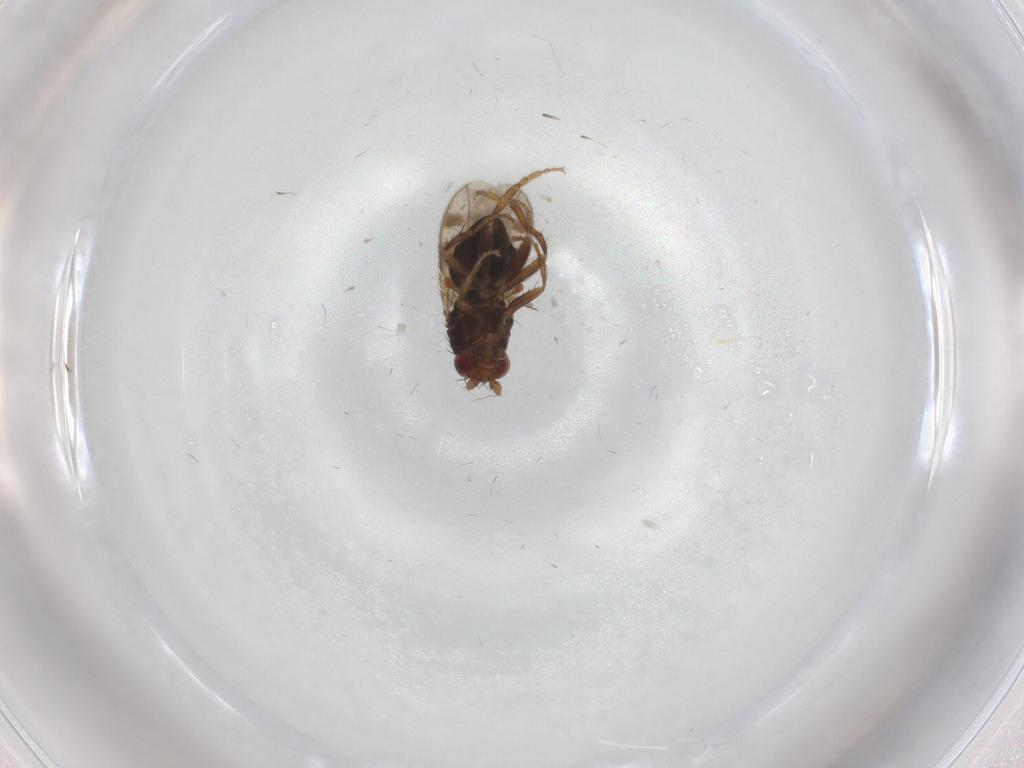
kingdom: Animalia
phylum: Arthropoda
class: Insecta
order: Diptera
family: Sphaeroceridae
